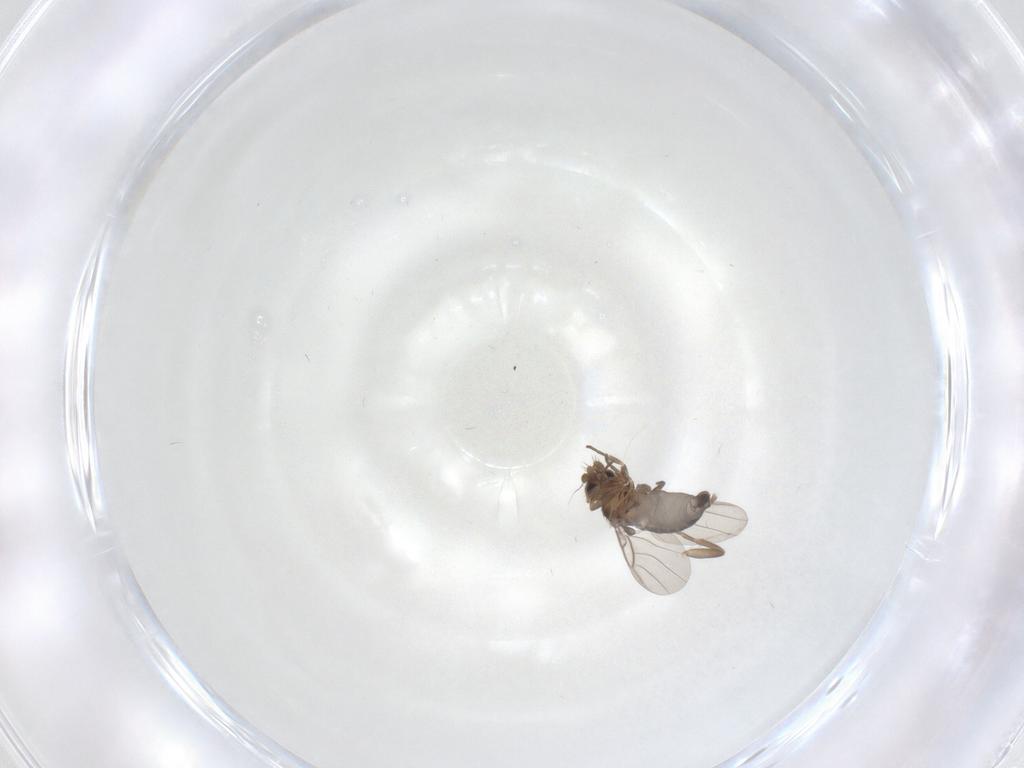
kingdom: Animalia
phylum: Arthropoda
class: Insecta
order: Diptera
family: Phoridae
